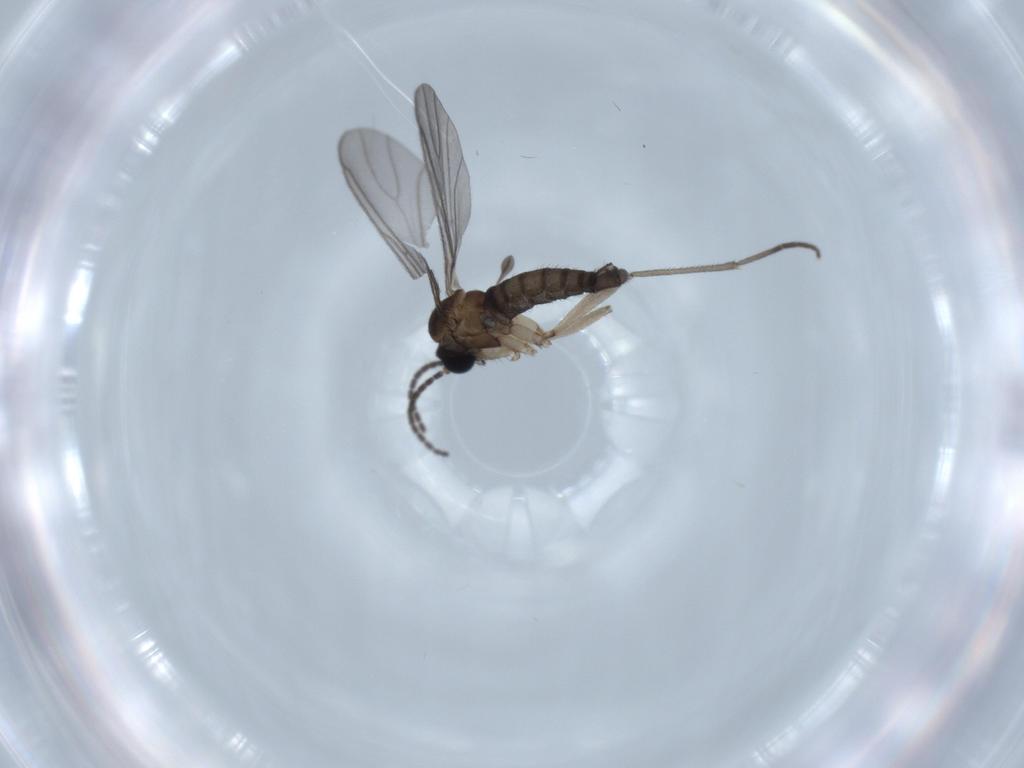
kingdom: Animalia
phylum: Arthropoda
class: Insecta
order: Diptera
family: Sciaridae
